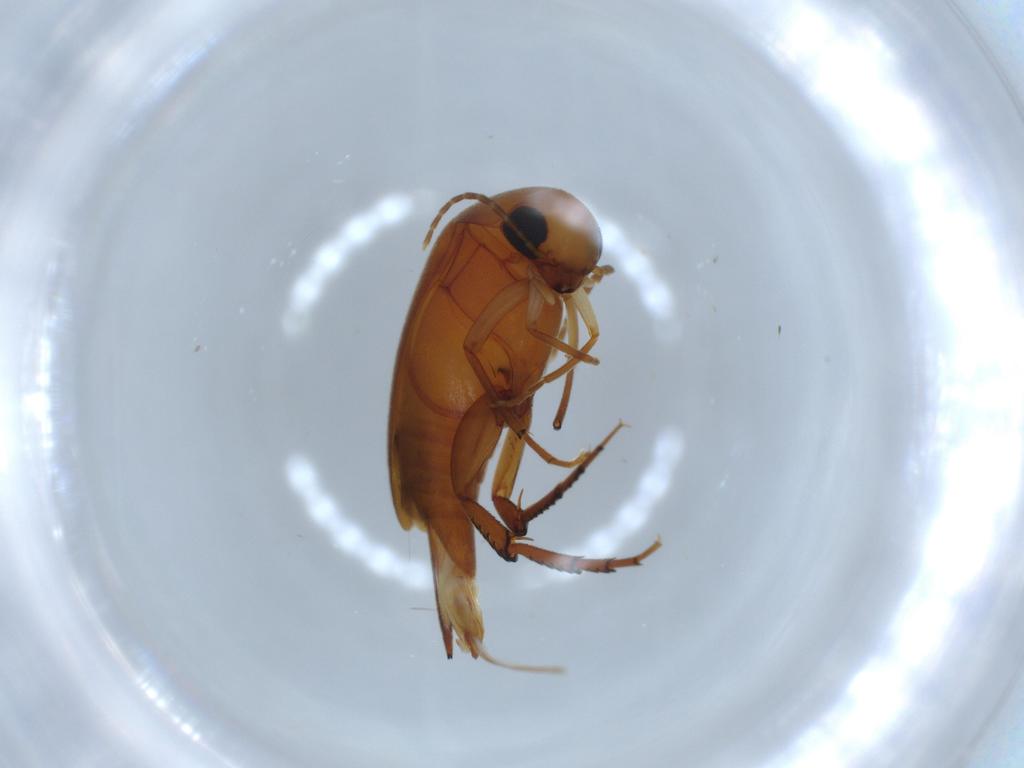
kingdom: Animalia
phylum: Arthropoda
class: Insecta
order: Coleoptera
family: Mordellidae
